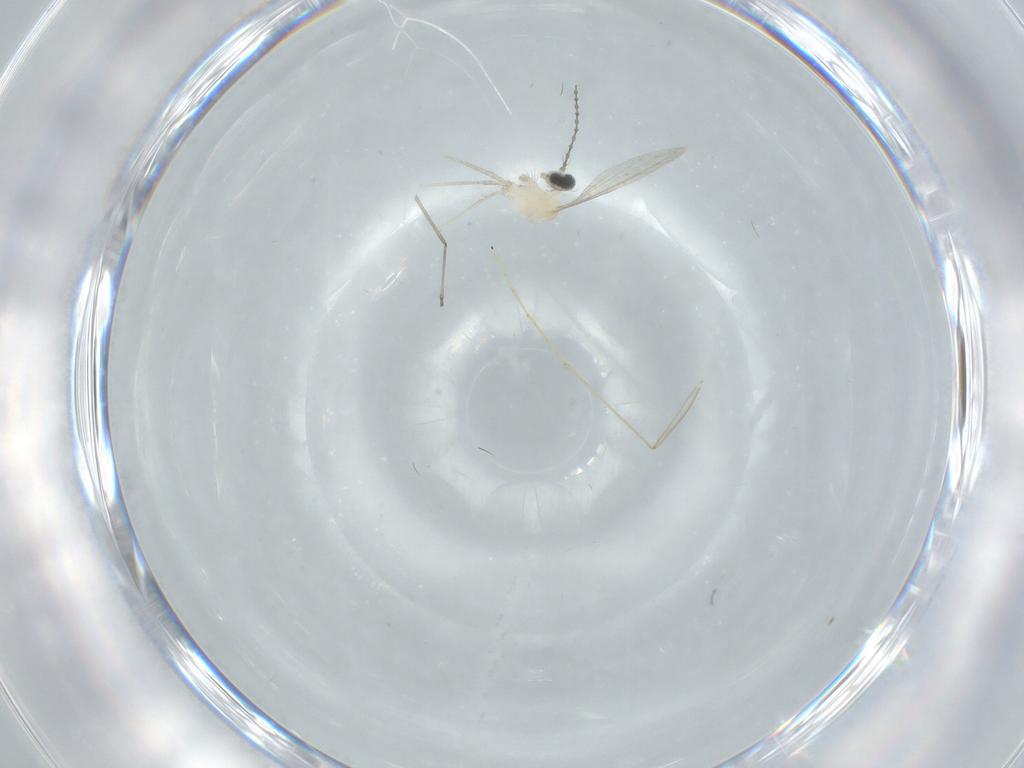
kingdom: Animalia
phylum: Arthropoda
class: Insecta
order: Diptera
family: Cecidomyiidae
